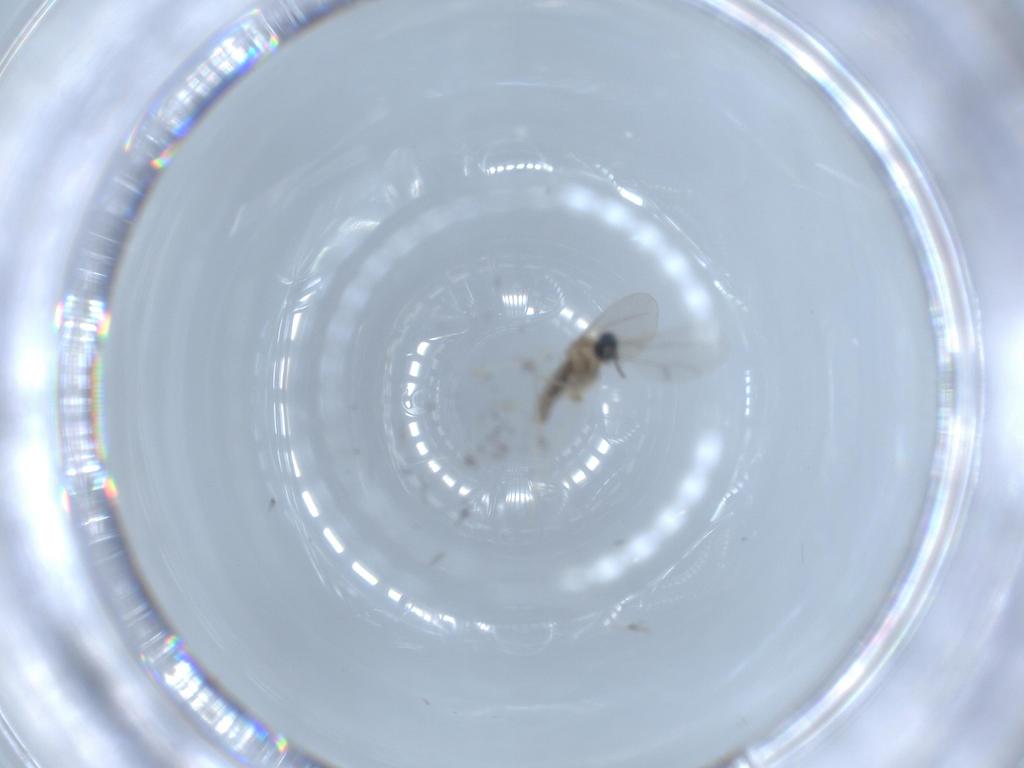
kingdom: Animalia
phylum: Arthropoda
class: Insecta
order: Diptera
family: Cecidomyiidae
